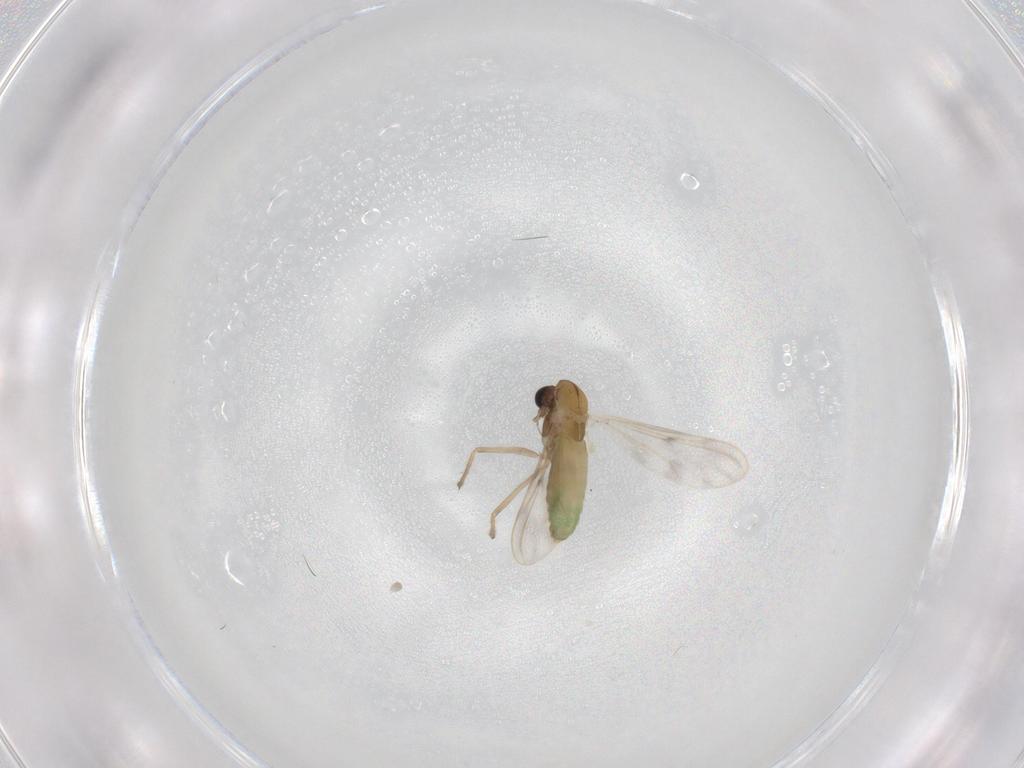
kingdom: Animalia
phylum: Arthropoda
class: Insecta
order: Diptera
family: Chironomidae
